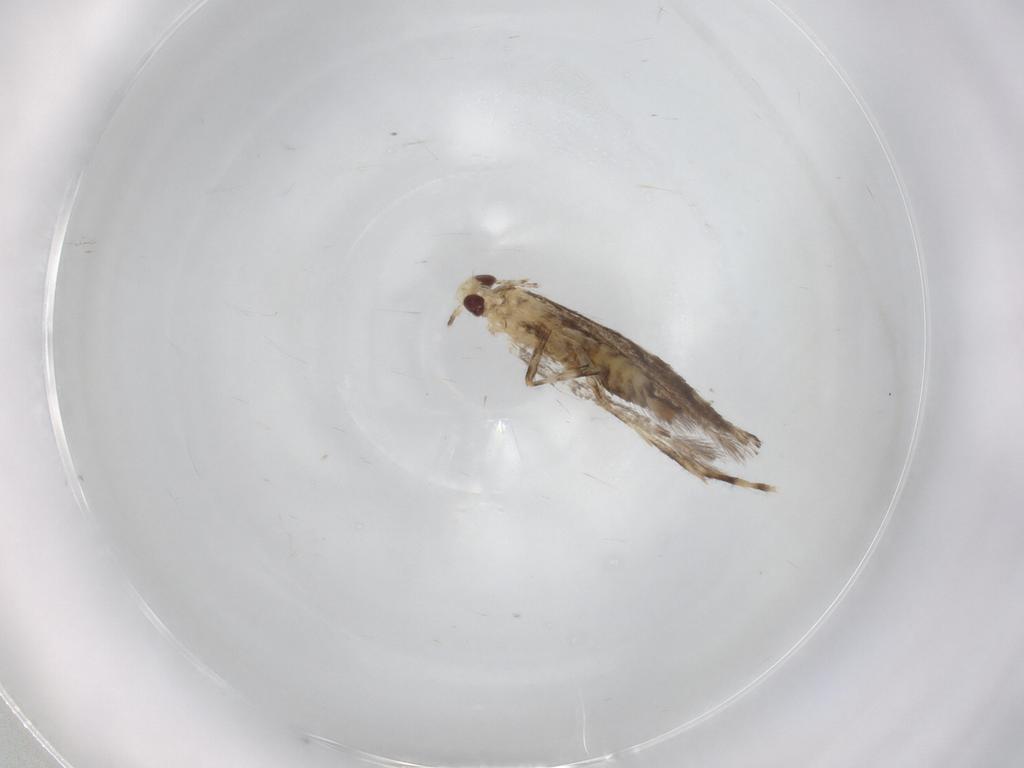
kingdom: Animalia
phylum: Arthropoda
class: Insecta
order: Lepidoptera
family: Gracillariidae
